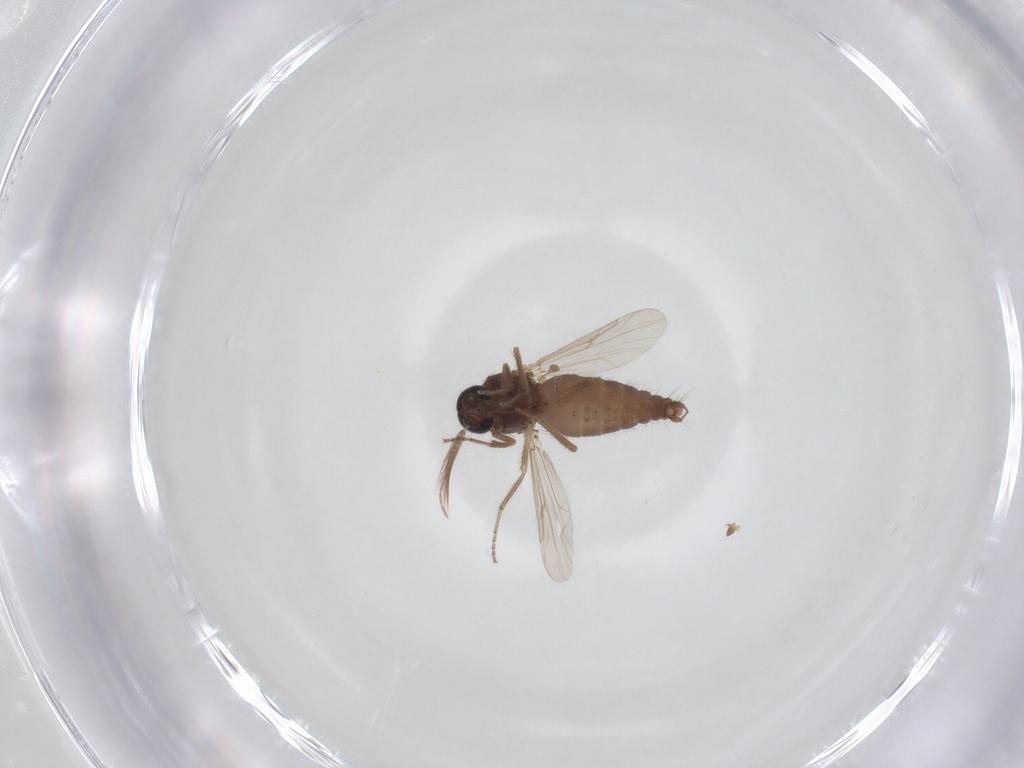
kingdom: Animalia
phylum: Arthropoda
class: Insecta
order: Diptera
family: Ceratopogonidae
